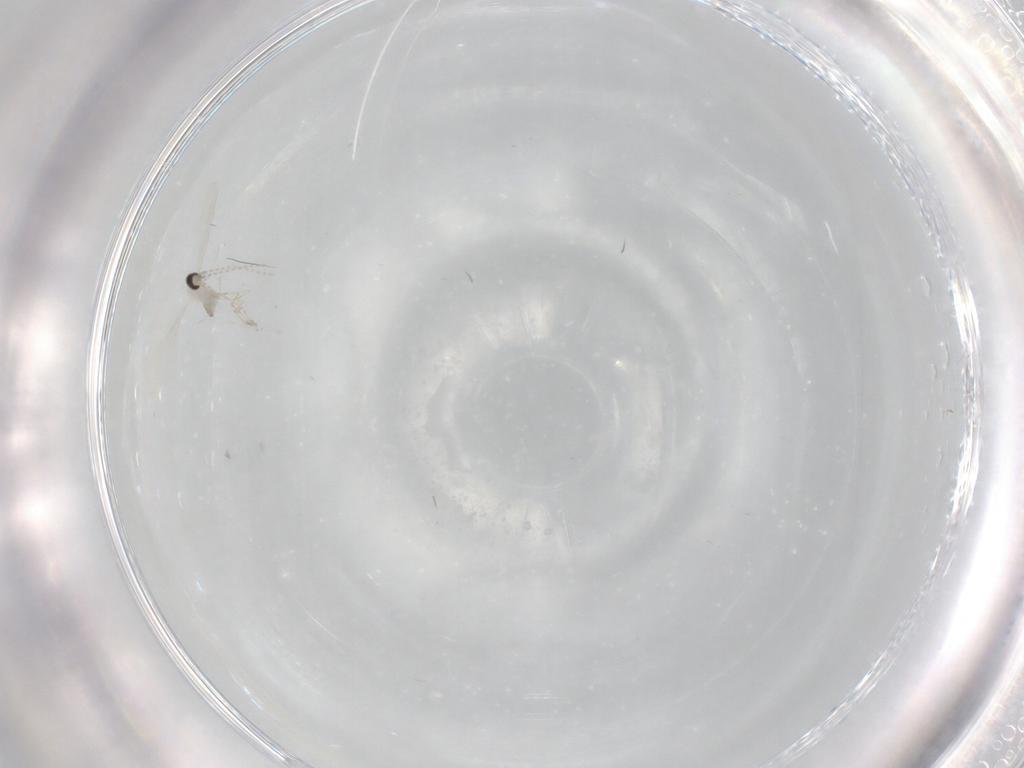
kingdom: Animalia
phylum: Arthropoda
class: Insecta
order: Diptera
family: Cecidomyiidae
